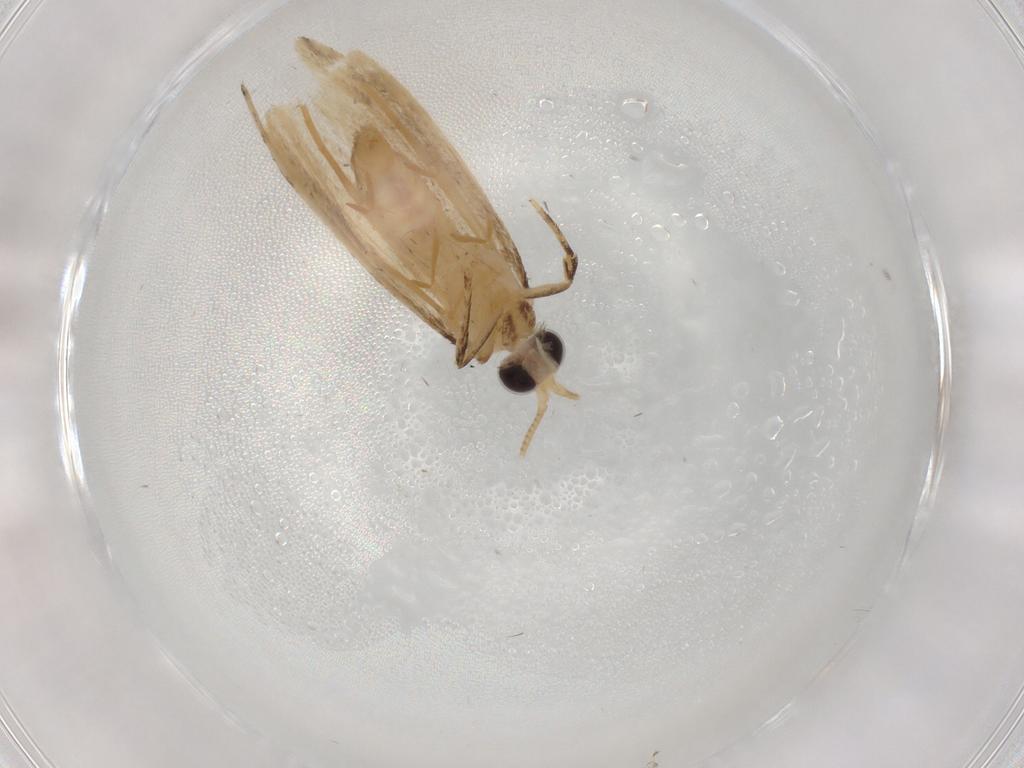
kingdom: Animalia
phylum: Arthropoda
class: Insecta
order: Lepidoptera
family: Nepticulidae
